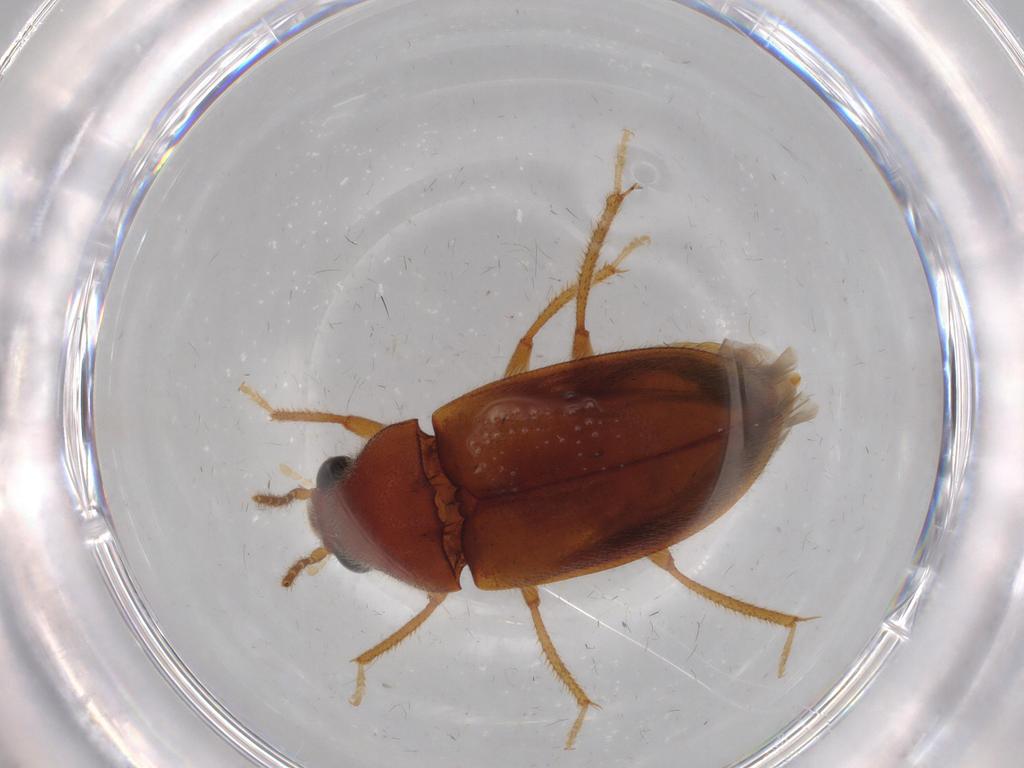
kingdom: Animalia
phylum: Arthropoda
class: Insecta
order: Coleoptera
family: Ptilodactylidae
